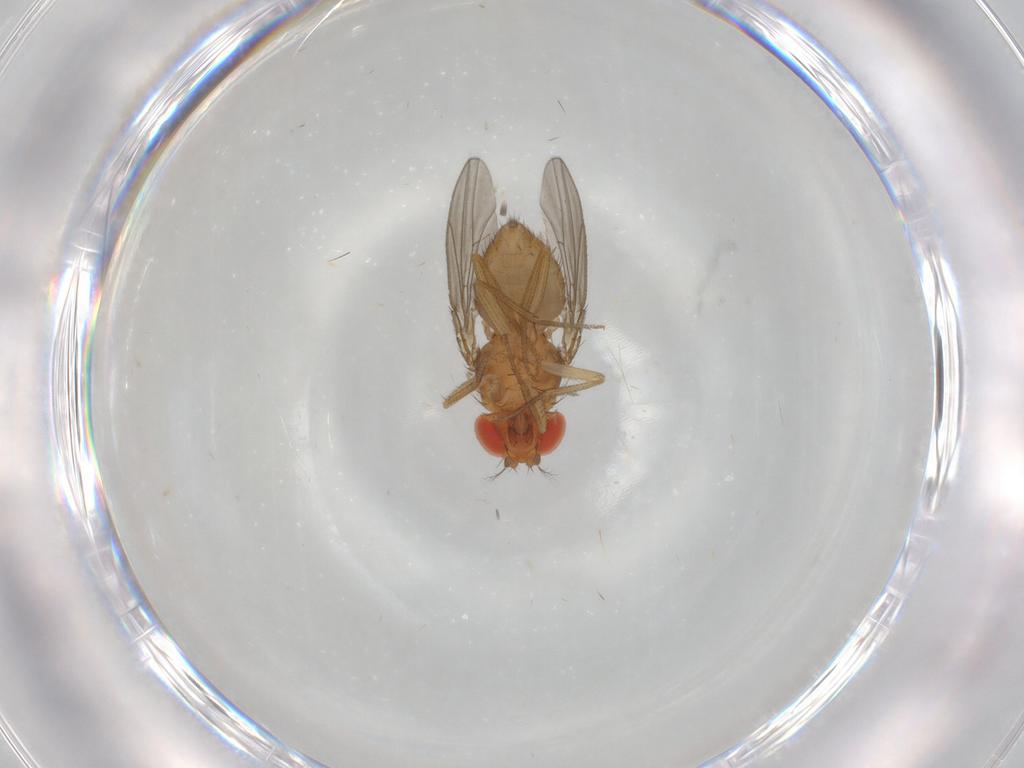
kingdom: Animalia
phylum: Arthropoda
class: Insecta
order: Diptera
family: Drosophilidae
